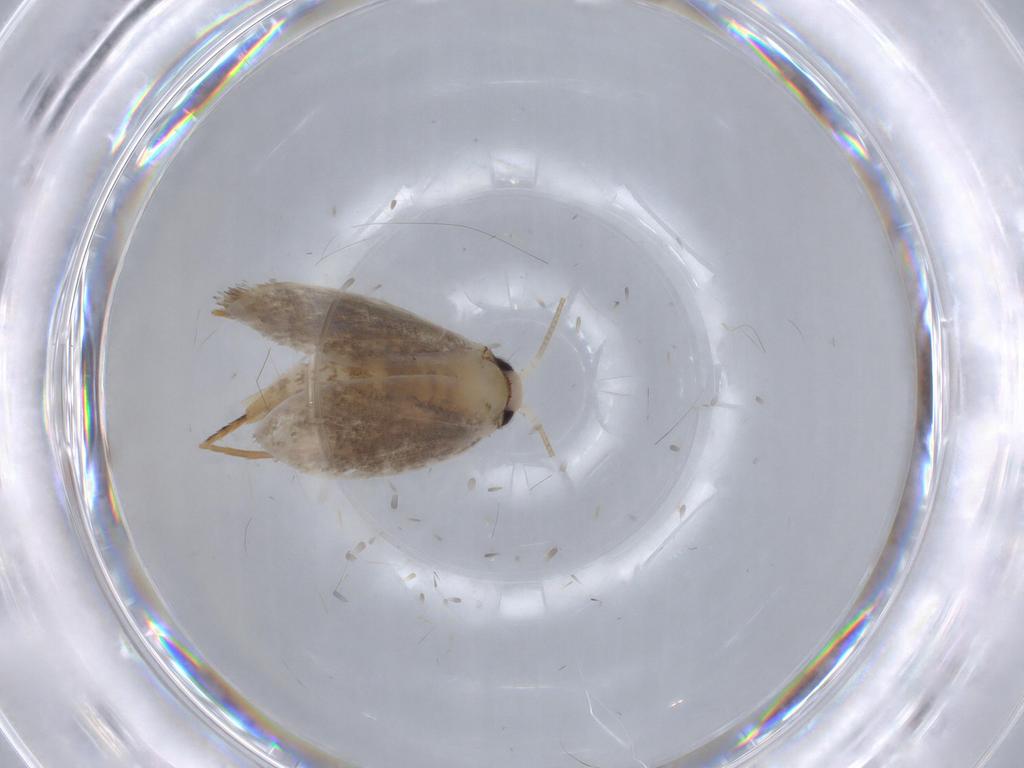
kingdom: Animalia
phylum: Arthropoda
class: Insecta
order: Lepidoptera
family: Tineidae
